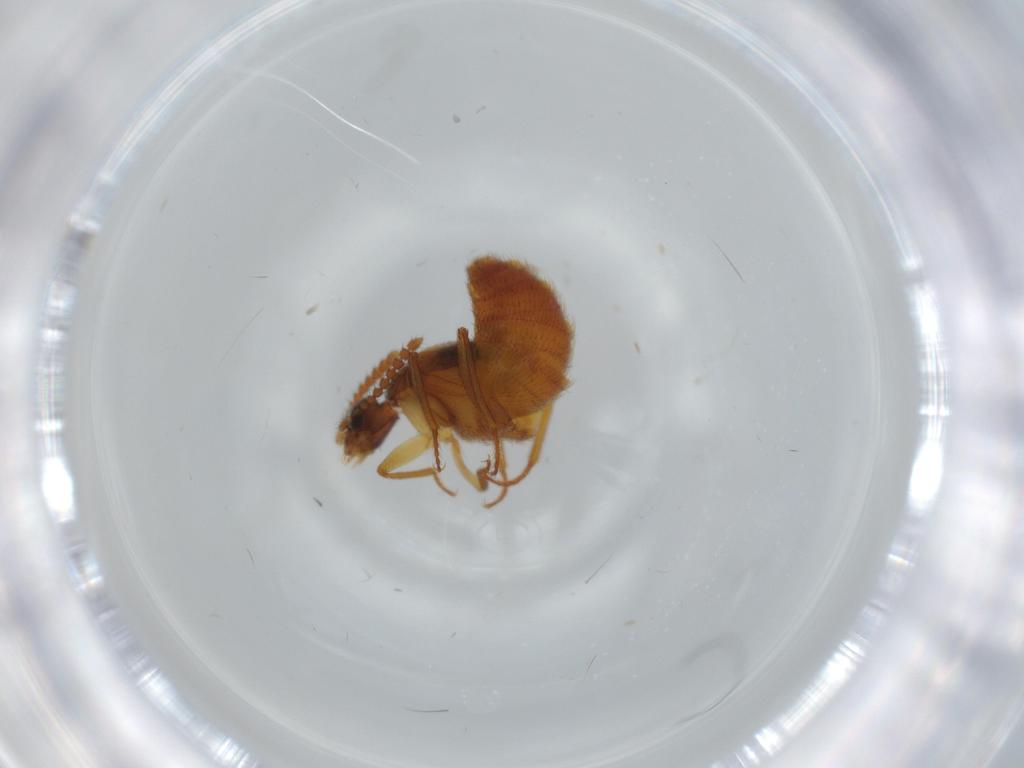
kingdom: Animalia
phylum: Arthropoda
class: Insecta
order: Coleoptera
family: Staphylinidae
